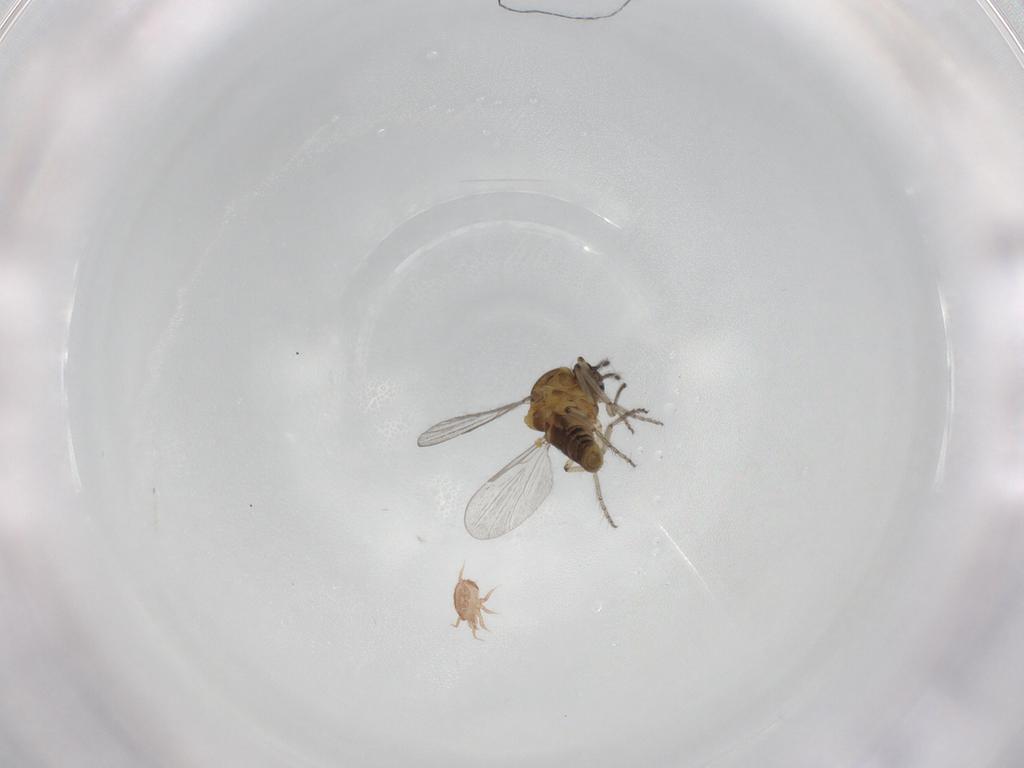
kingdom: Animalia
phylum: Arthropoda
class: Insecta
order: Diptera
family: Ceratopogonidae
